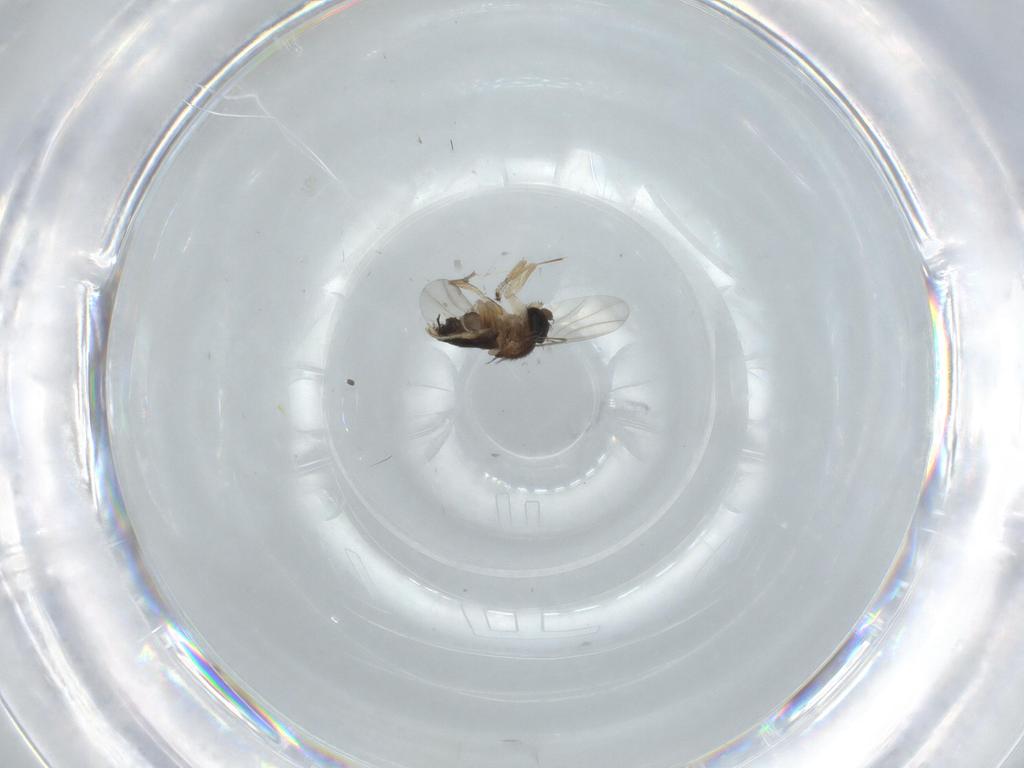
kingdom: Animalia
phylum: Arthropoda
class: Insecta
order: Diptera
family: Phoridae
